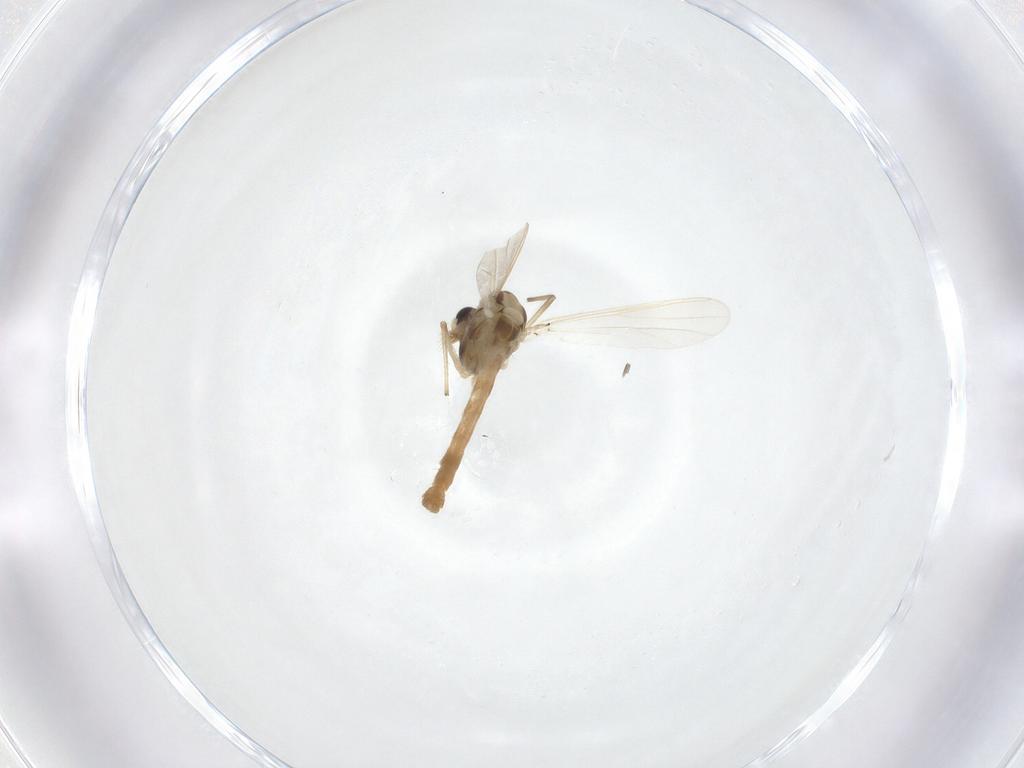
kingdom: Animalia
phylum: Arthropoda
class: Insecta
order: Diptera
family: Chironomidae
